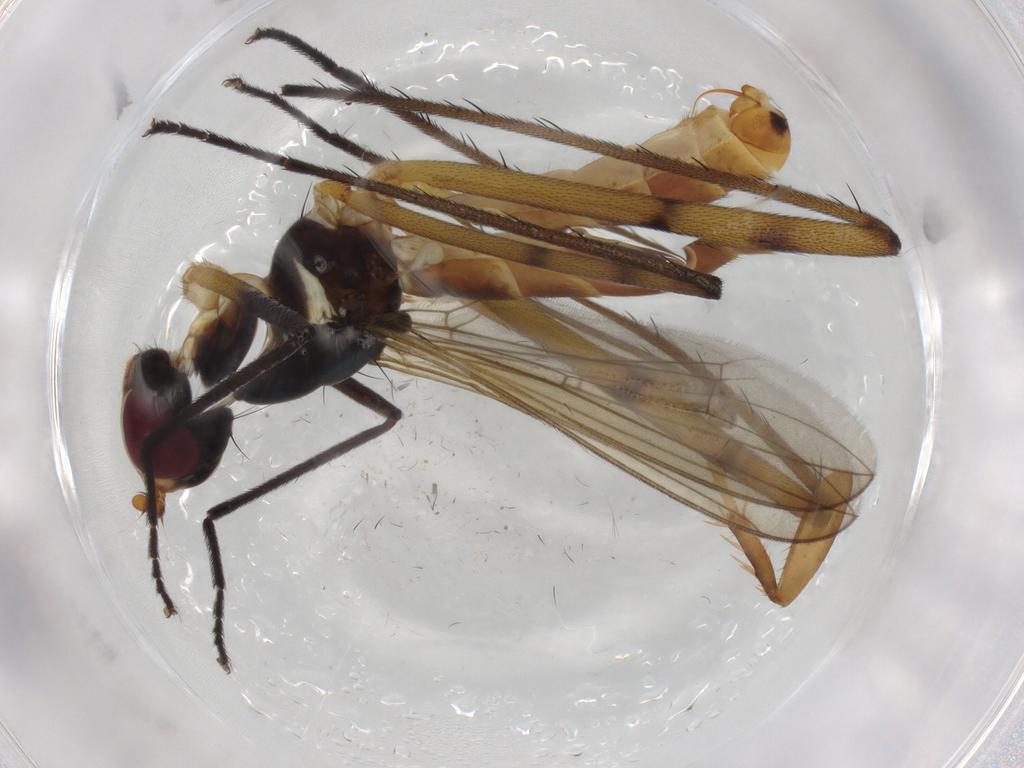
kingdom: Animalia
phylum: Arthropoda
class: Insecta
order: Diptera
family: Micropezidae
